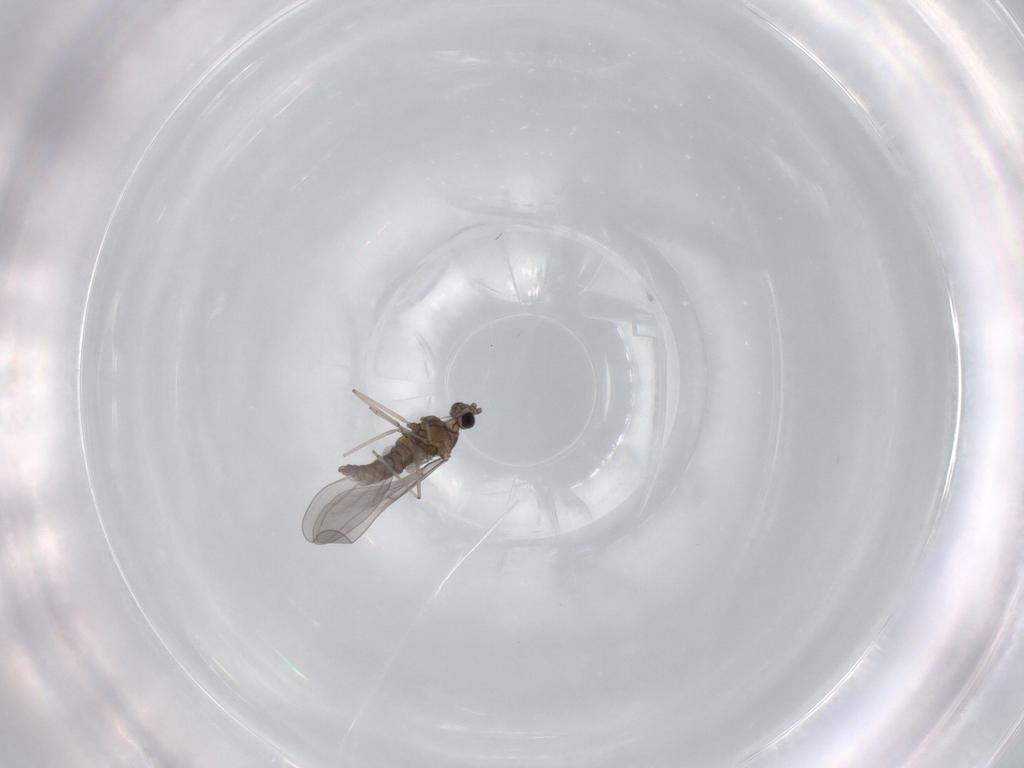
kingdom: Animalia
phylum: Arthropoda
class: Insecta
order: Diptera
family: Cecidomyiidae
